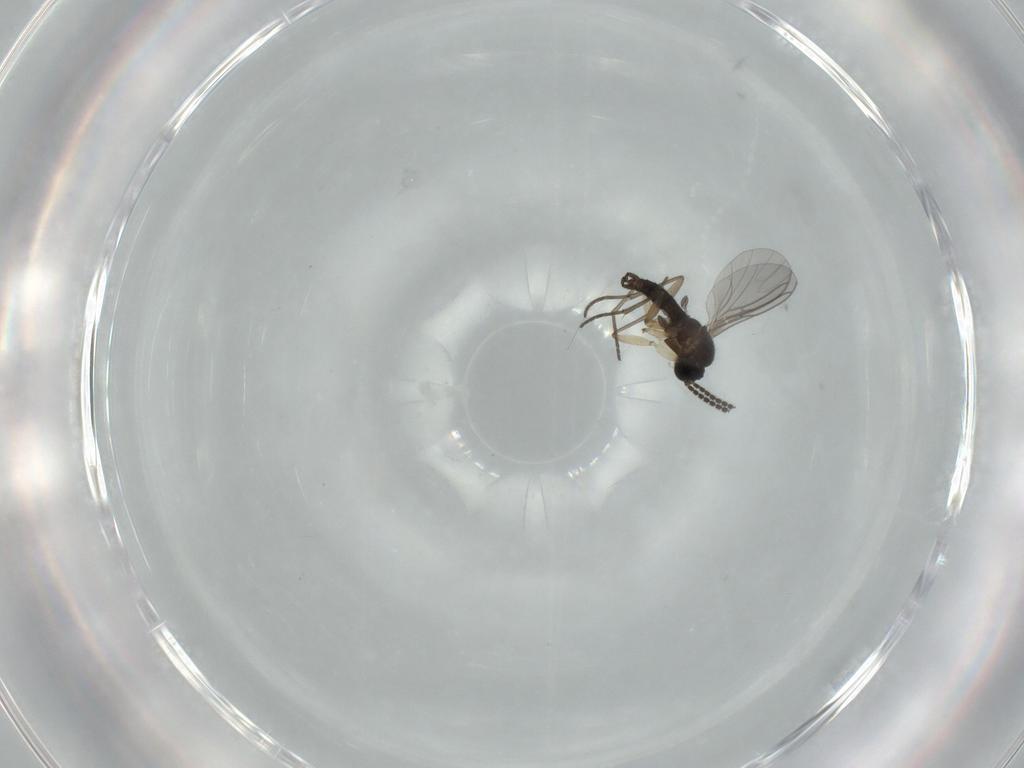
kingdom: Animalia
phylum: Arthropoda
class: Insecta
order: Diptera
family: Sciaridae
